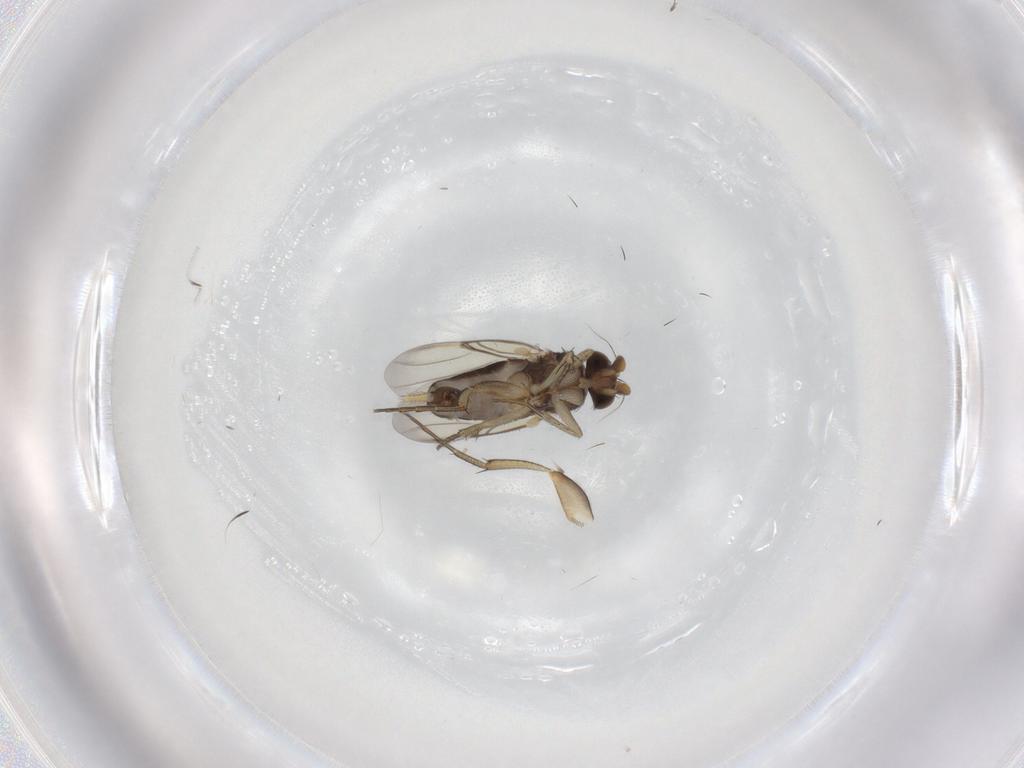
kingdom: Animalia
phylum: Arthropoda
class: Insecta
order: Diptera
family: Phoridae
